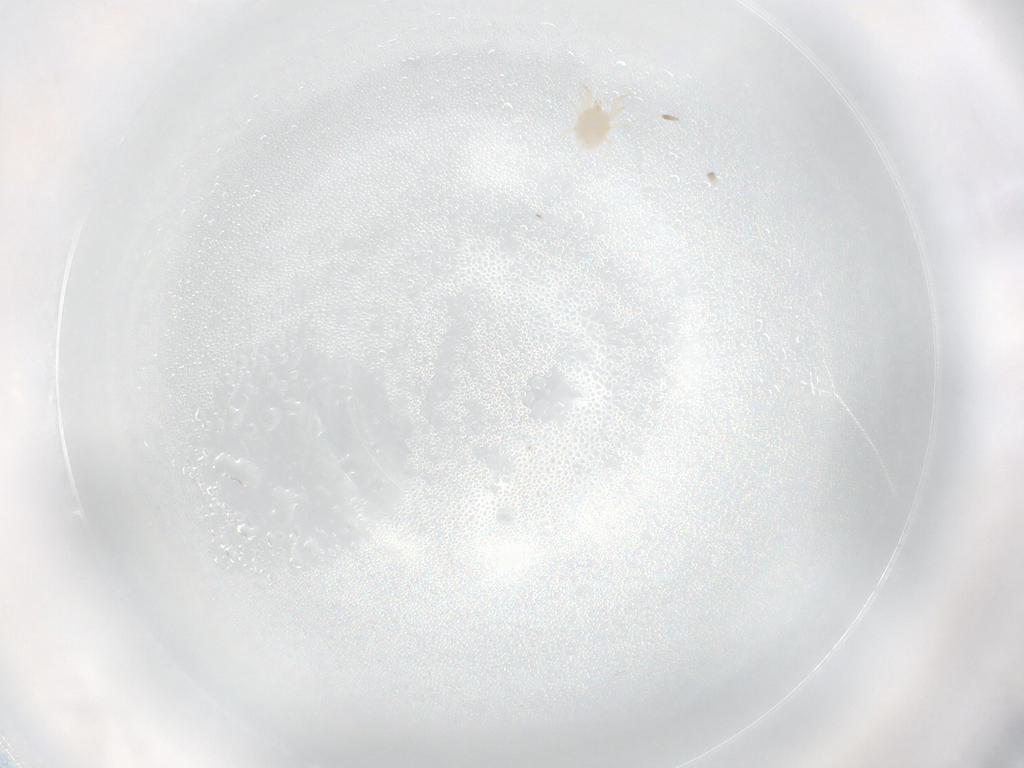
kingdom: Animalia
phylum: Arthropoda
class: Arachnida
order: Mesostigmata
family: Phytoseiidae
